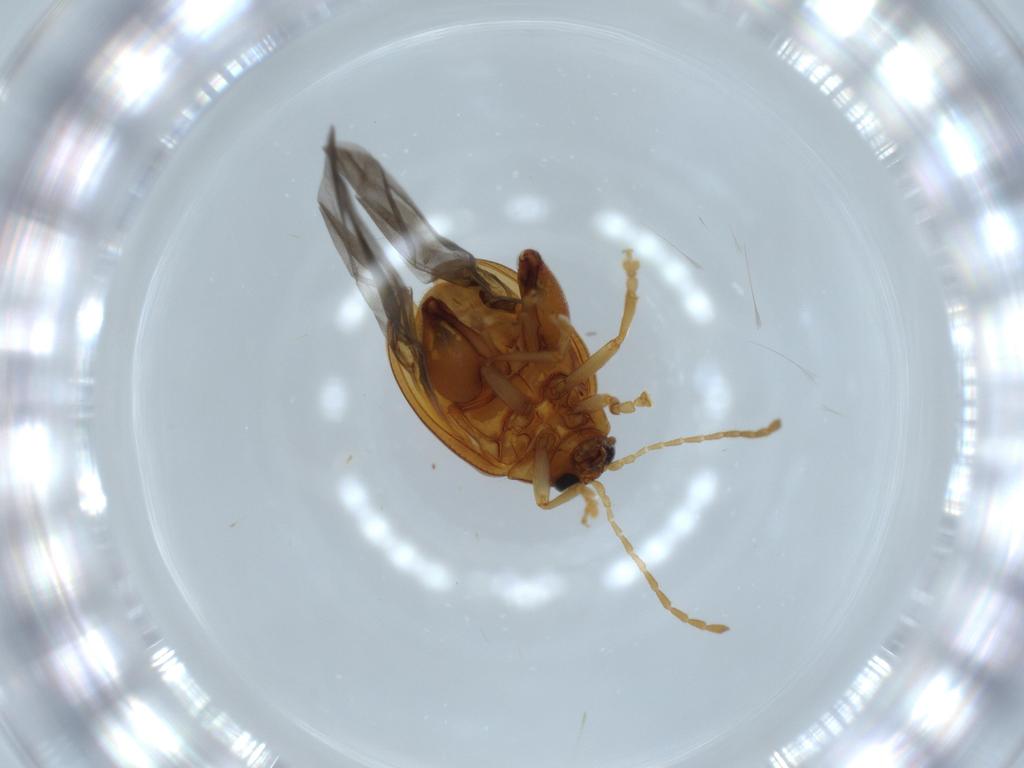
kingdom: Animalia
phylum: Arthropoda
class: Insecta
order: Coleoptera
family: Chrysomelidae
